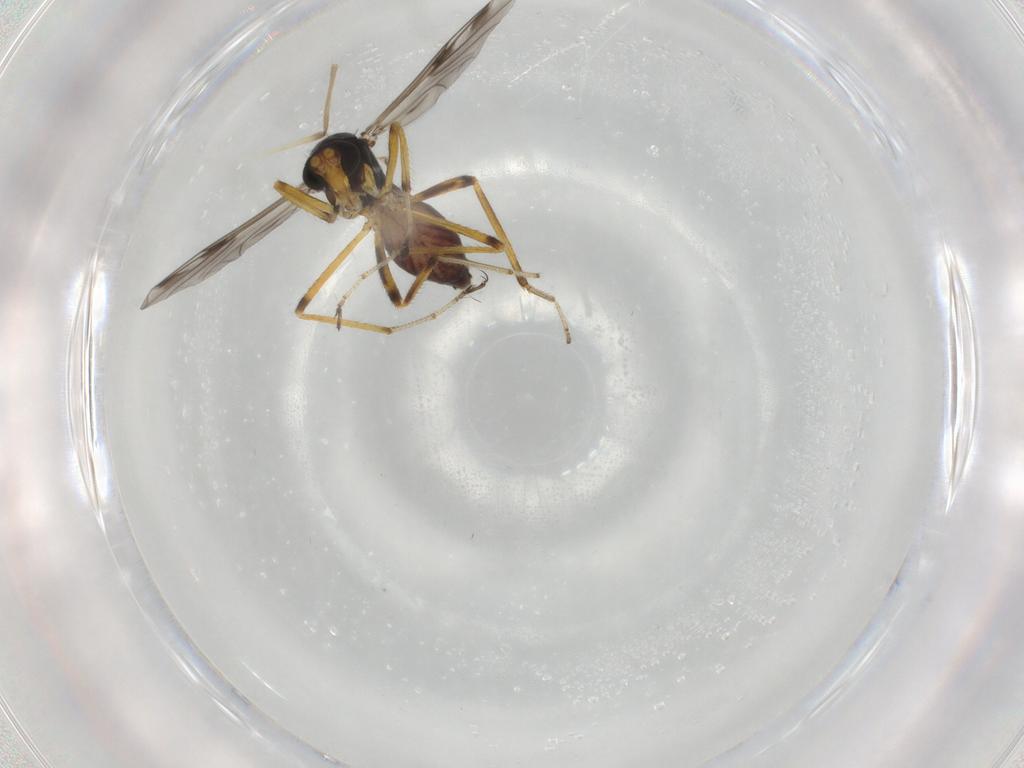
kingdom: Animalia
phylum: Arthropoda
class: Insecta
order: Diptera
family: Ceratopogonidae
